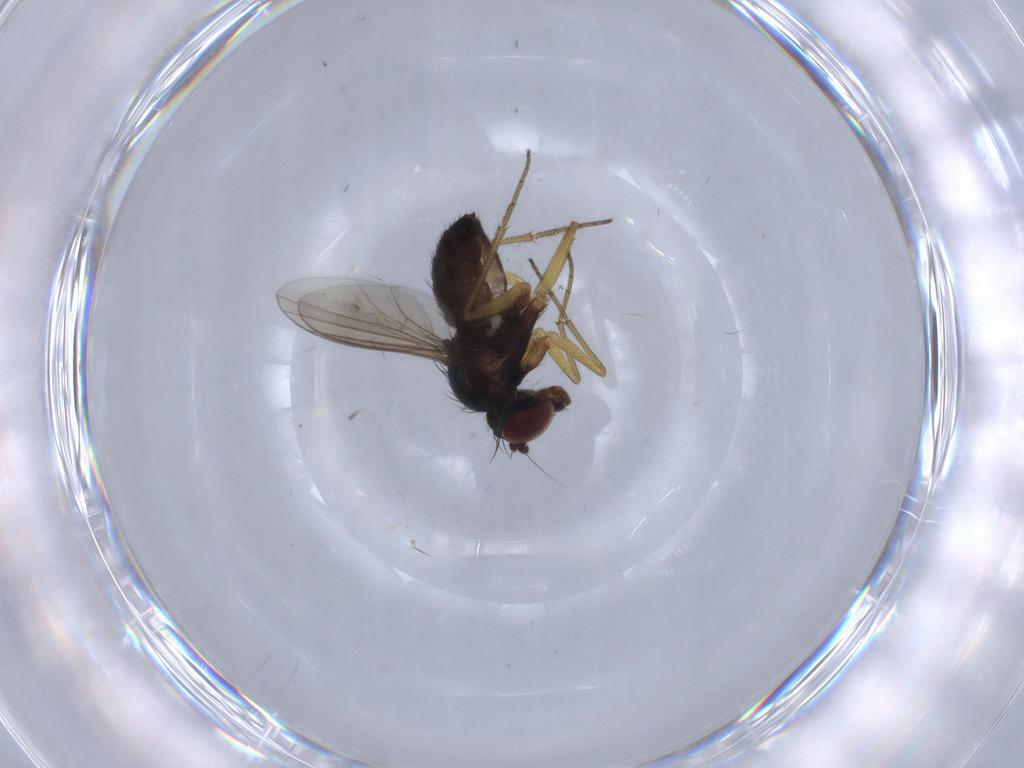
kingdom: Animalia
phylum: Arthropoda
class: Insecta
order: Diptera
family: Dolichopodidae
